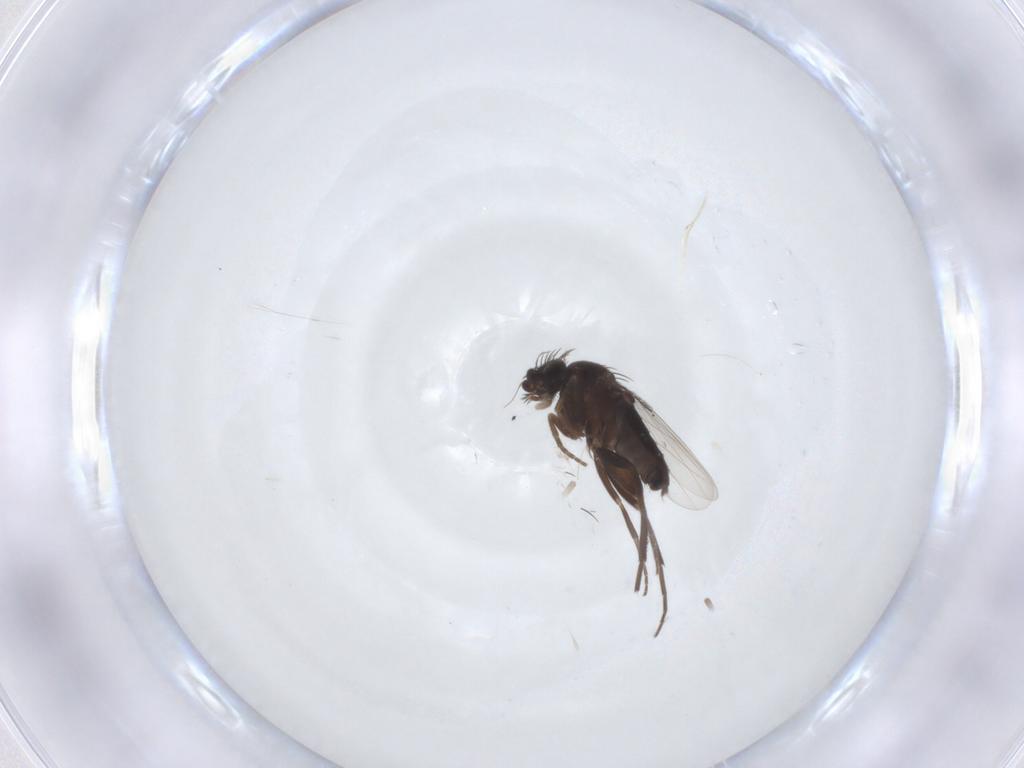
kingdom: Animalia
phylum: Arthropoda
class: Insecta
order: Diptera
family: Phoridae
